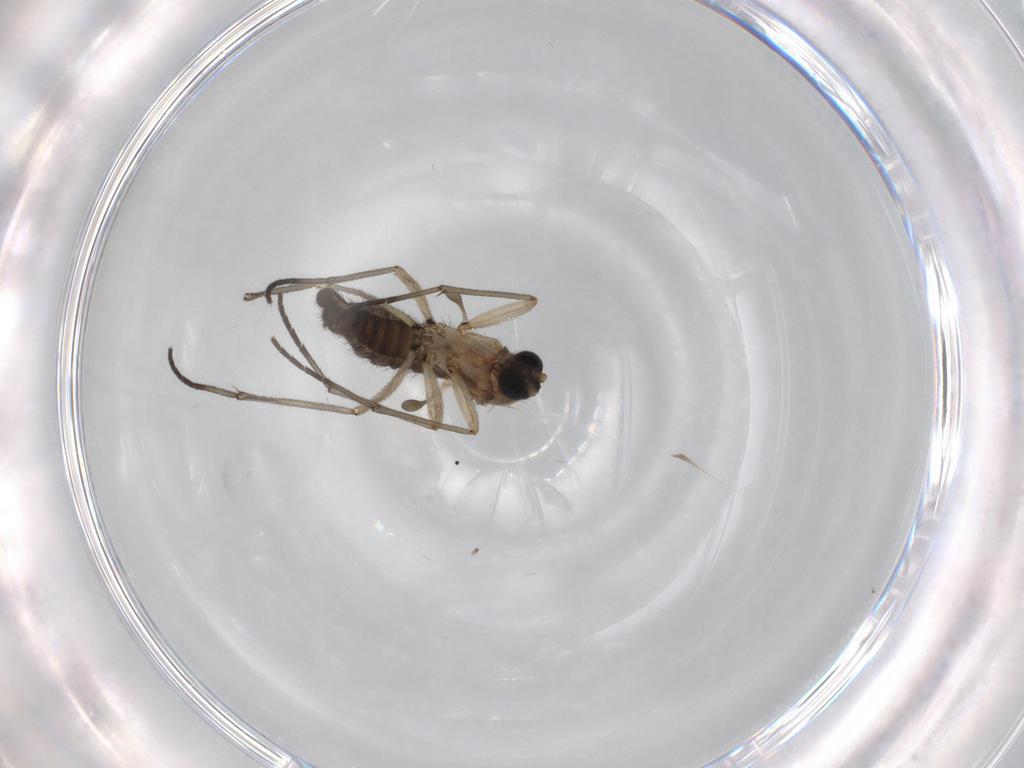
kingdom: Animalia
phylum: Arthropoda
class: Insecta
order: Diptera
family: Sciaridae
